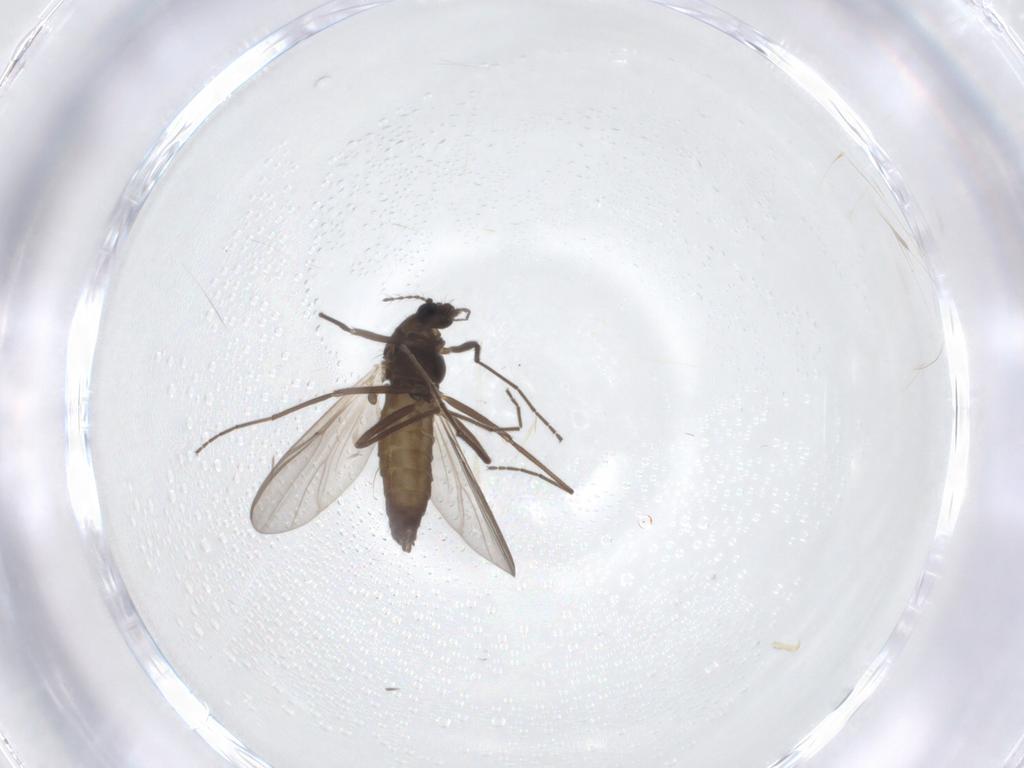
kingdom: Animalia
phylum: Arthropoda
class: Insecta
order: Diptera
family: Chironomidae
